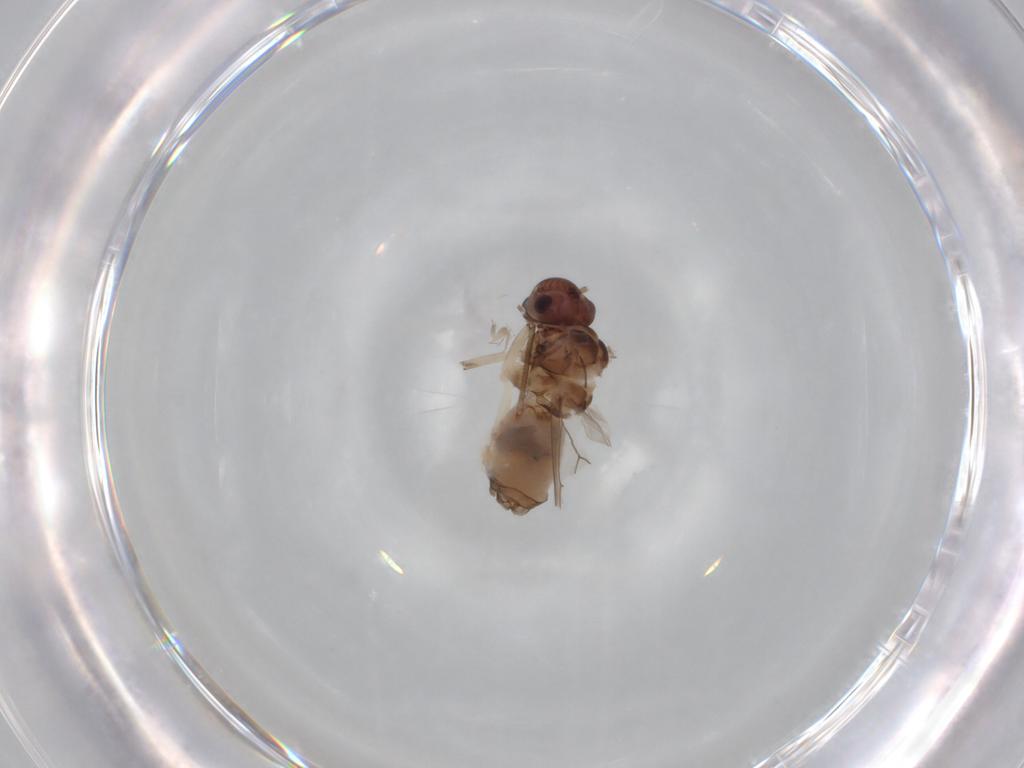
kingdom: Animalia
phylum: Arthropoda
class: Insecta
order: Psocodea
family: Peripsocidae
